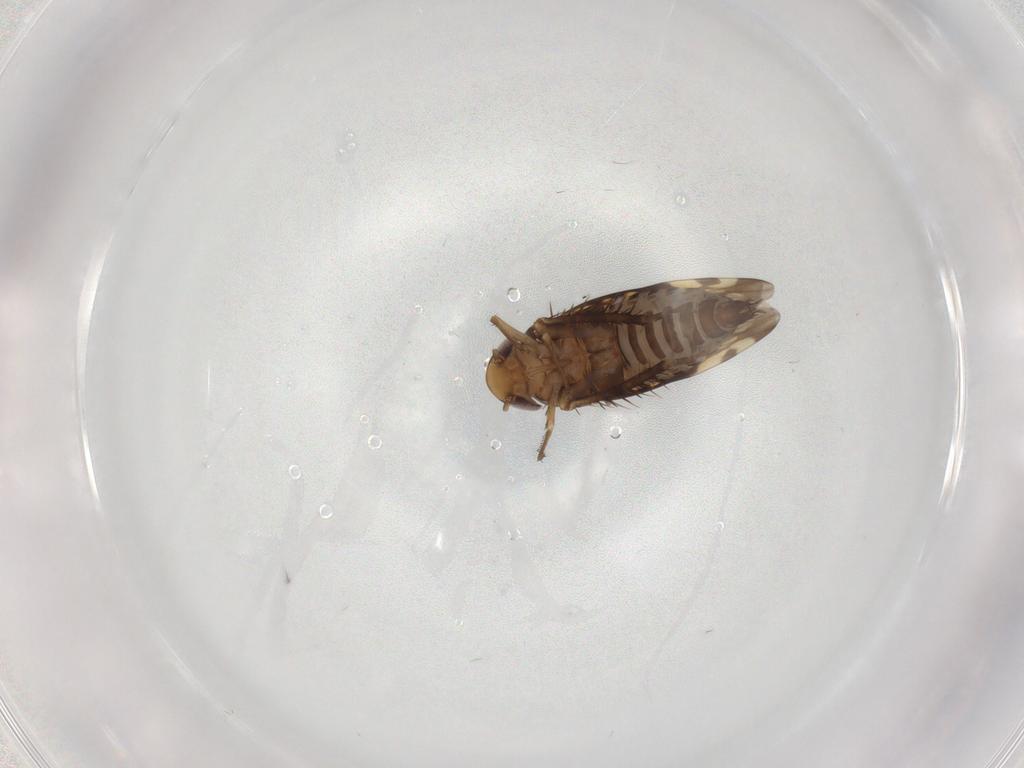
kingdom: Animalia
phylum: Arthropoda
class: Insecta
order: Hemiptera
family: Cicadellidae
